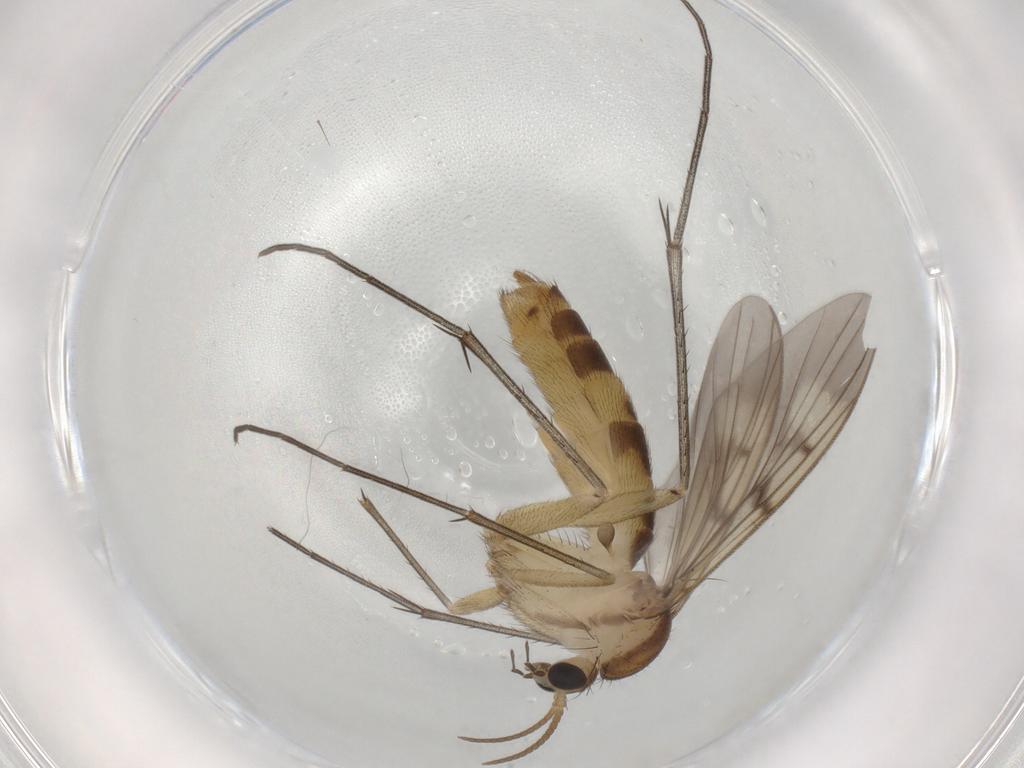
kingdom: Animalia
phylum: Arthropoda
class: Insecta
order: Diptera
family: Mycetophilidae
